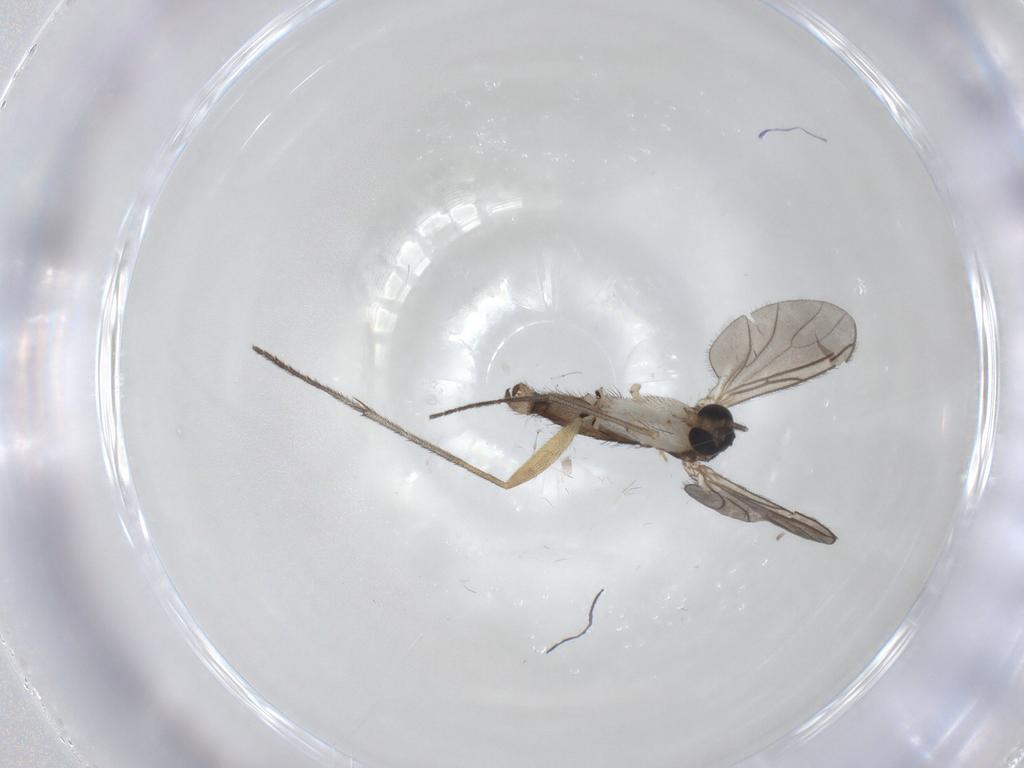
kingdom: Animalia
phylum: Arthropoda
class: Insecta
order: Diptera
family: Sciaridae
